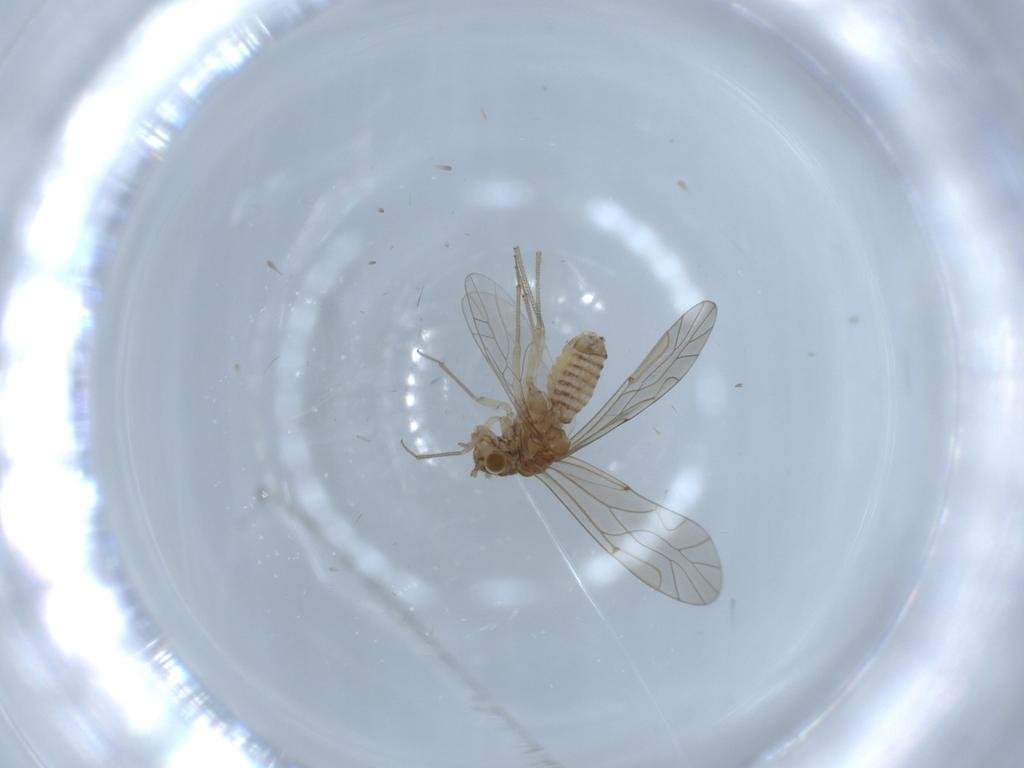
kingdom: Animalia
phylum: Arthropoda
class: Insecta
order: Psocodea
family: Lachesillidae
